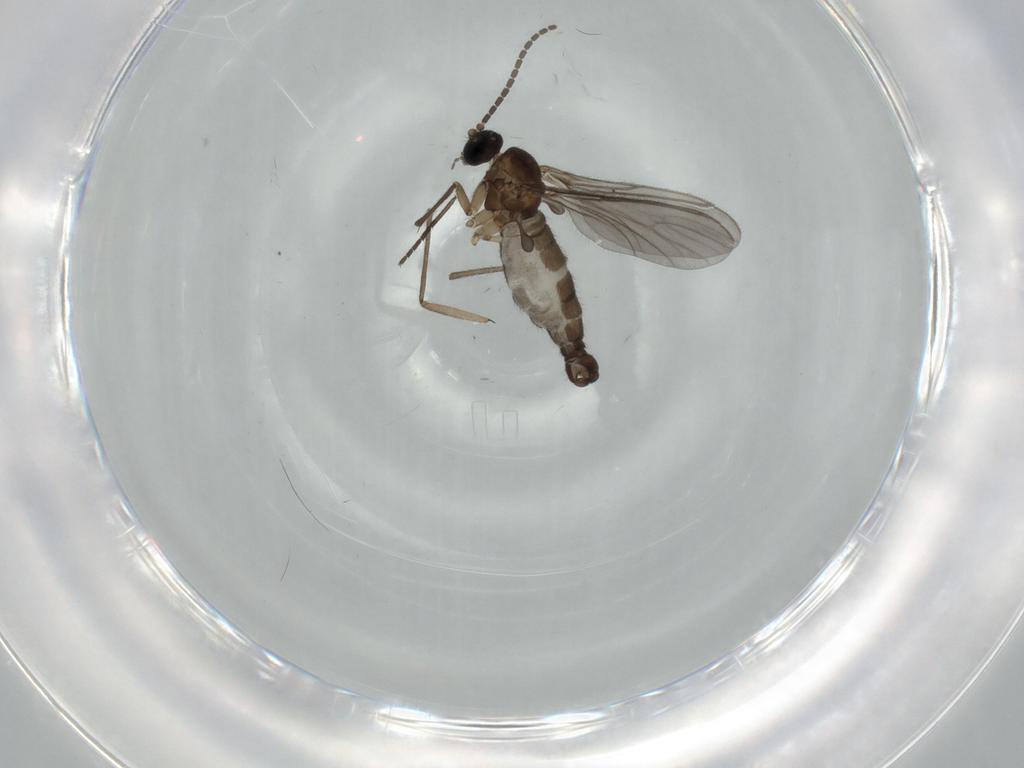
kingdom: Animalia
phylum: Arthropoda
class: Insecta
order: Diptera
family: Sciaridae
